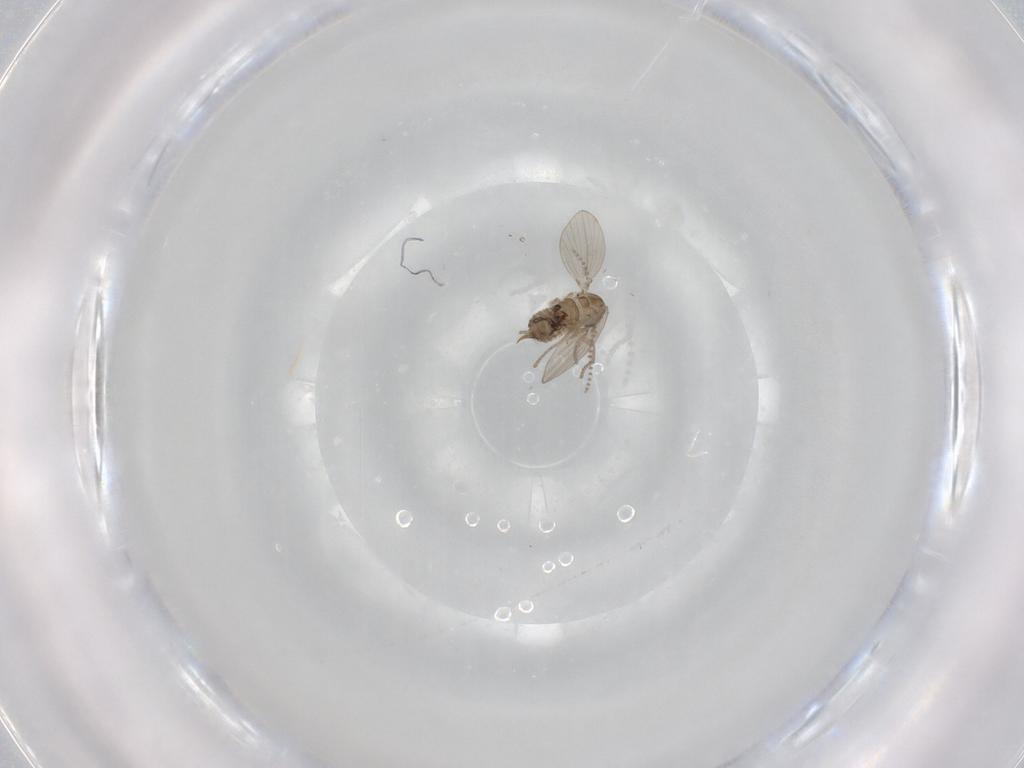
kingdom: Animalia
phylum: Arthropoda
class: Insecta
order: Diptera
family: Psychodidae
